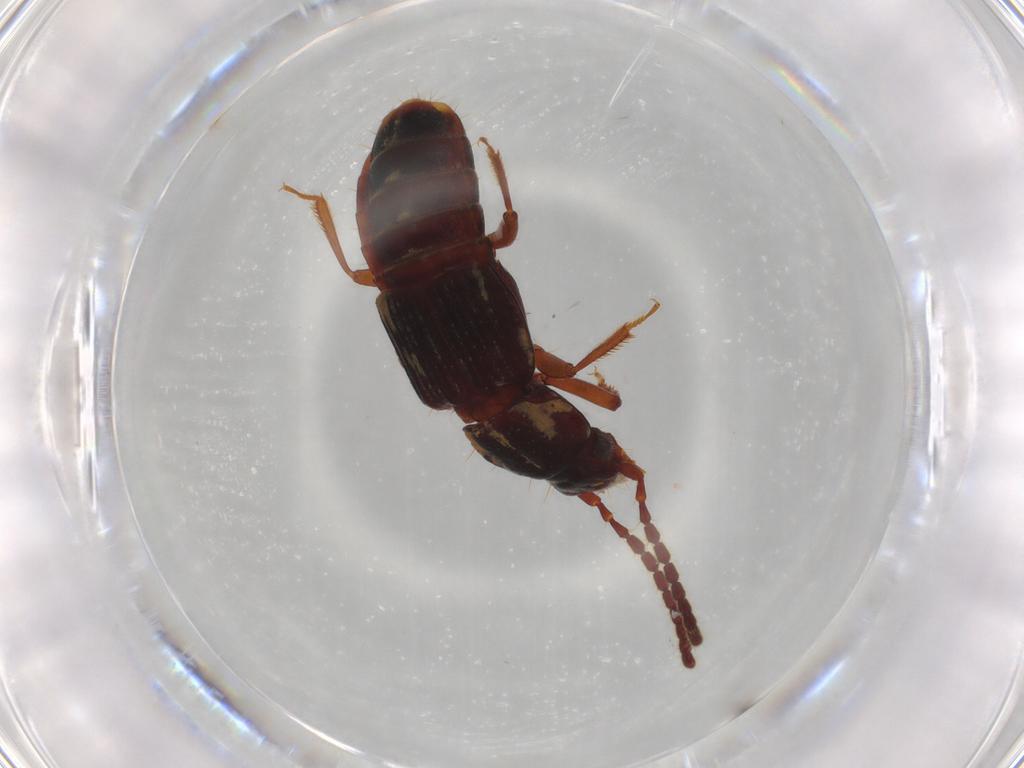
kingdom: Animalia
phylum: Arthropoda
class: Insecta
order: Coleoptera
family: Staphylinidae
